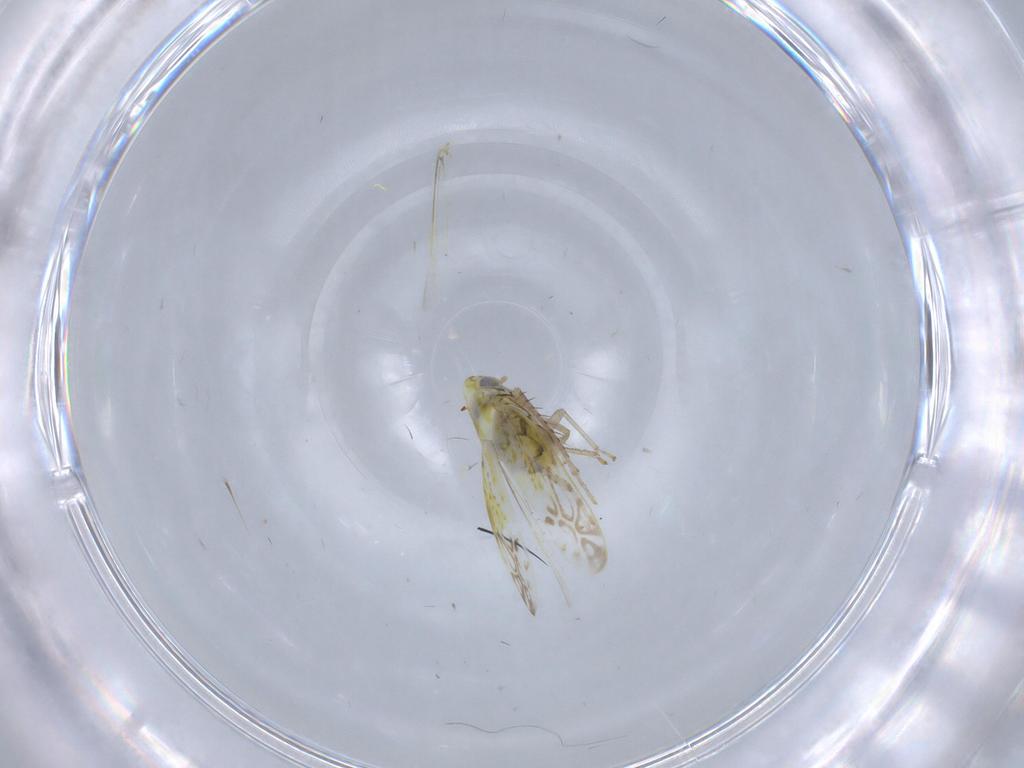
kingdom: Animalia
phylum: Arthropoda
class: Insecta
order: Hemiptera
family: Cicadellidae
